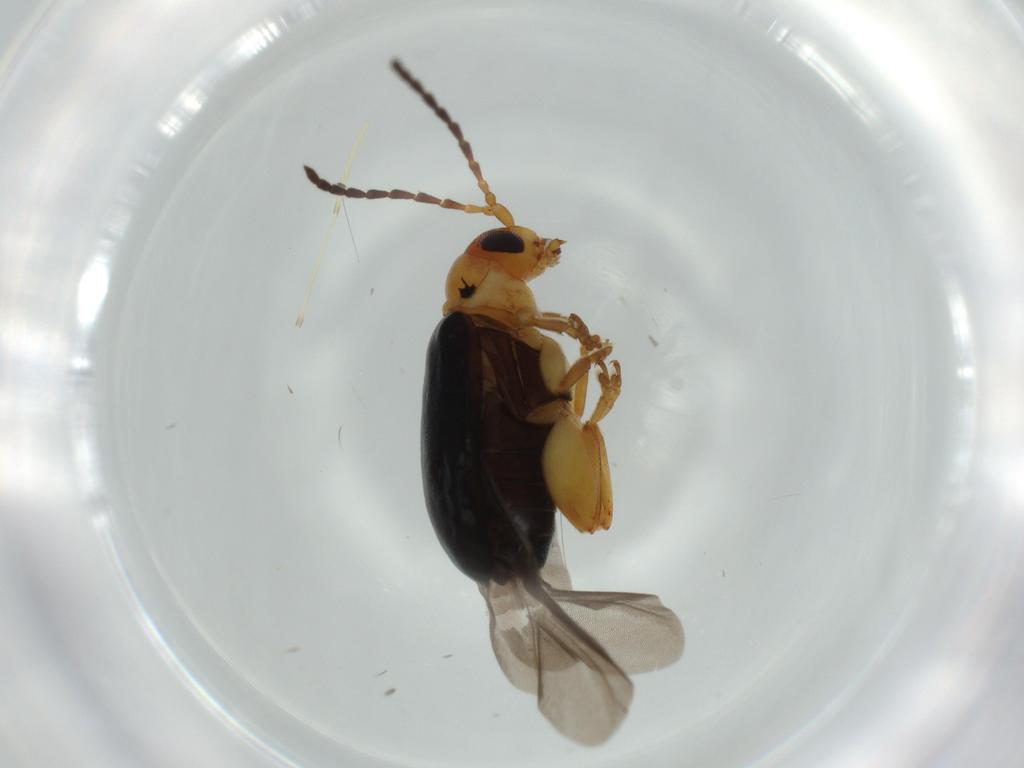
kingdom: Animalia
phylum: Arthropoda
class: Insecta
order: Coleoptera
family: Chrysomelidae
